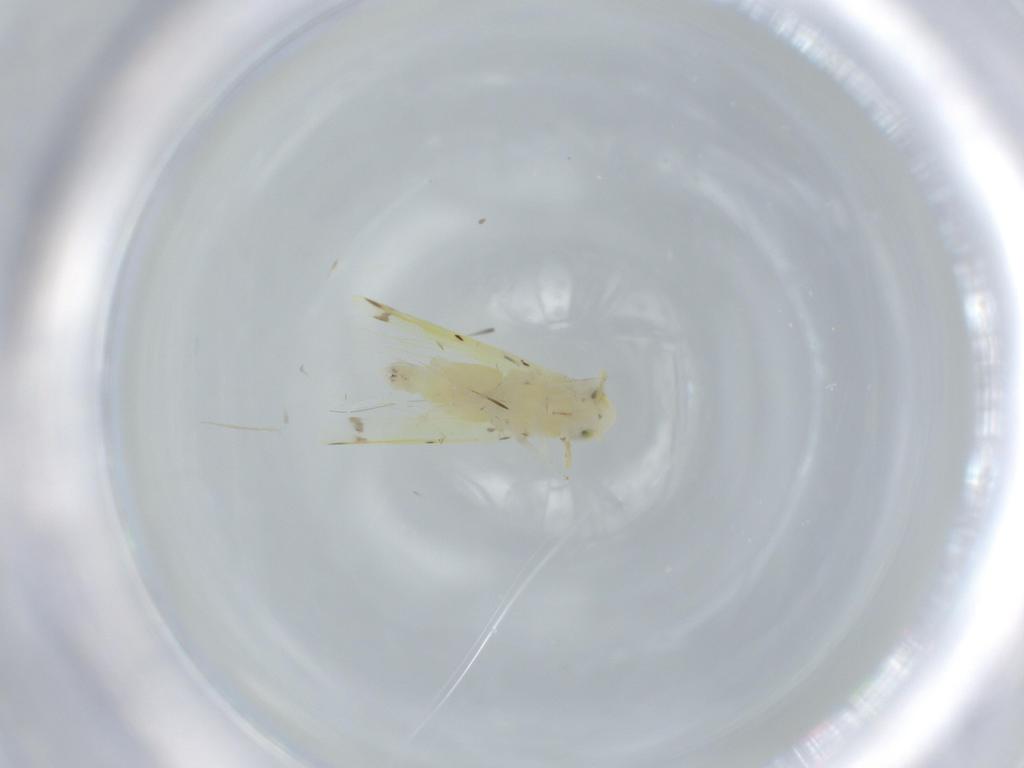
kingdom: Animalia
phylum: Arthropoda
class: Insecta
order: Hemiptera
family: Cicadellidae
